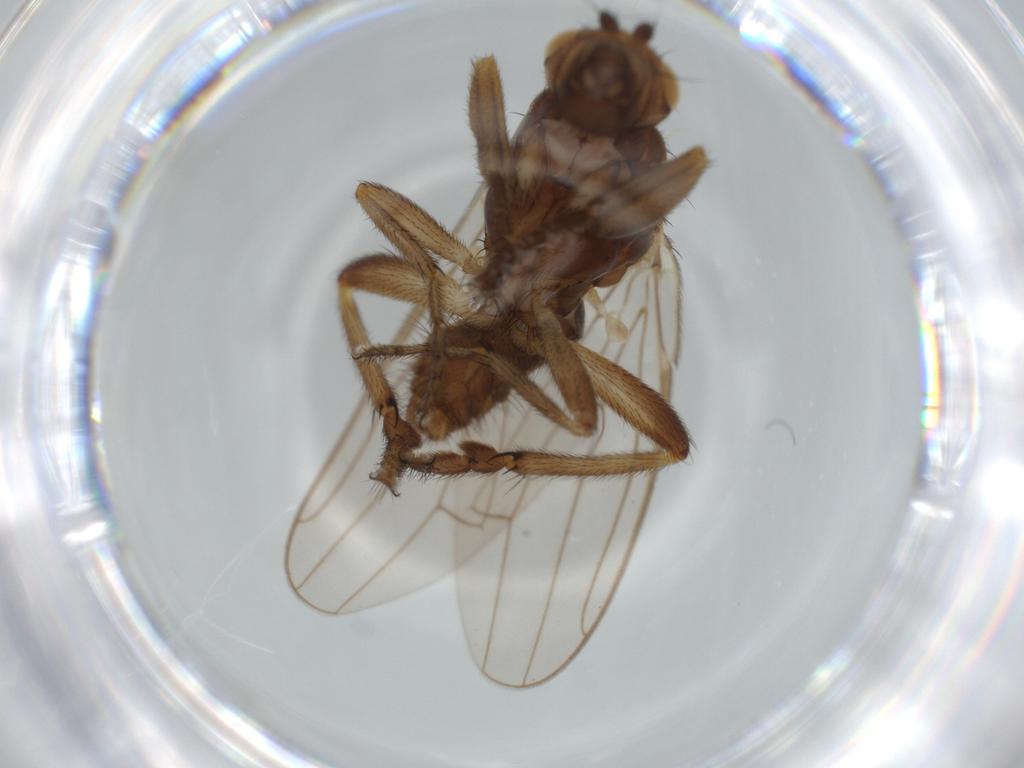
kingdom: Animalia
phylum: Arthropoda
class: Insecta
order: Diptera
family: Sphaeroceridae
